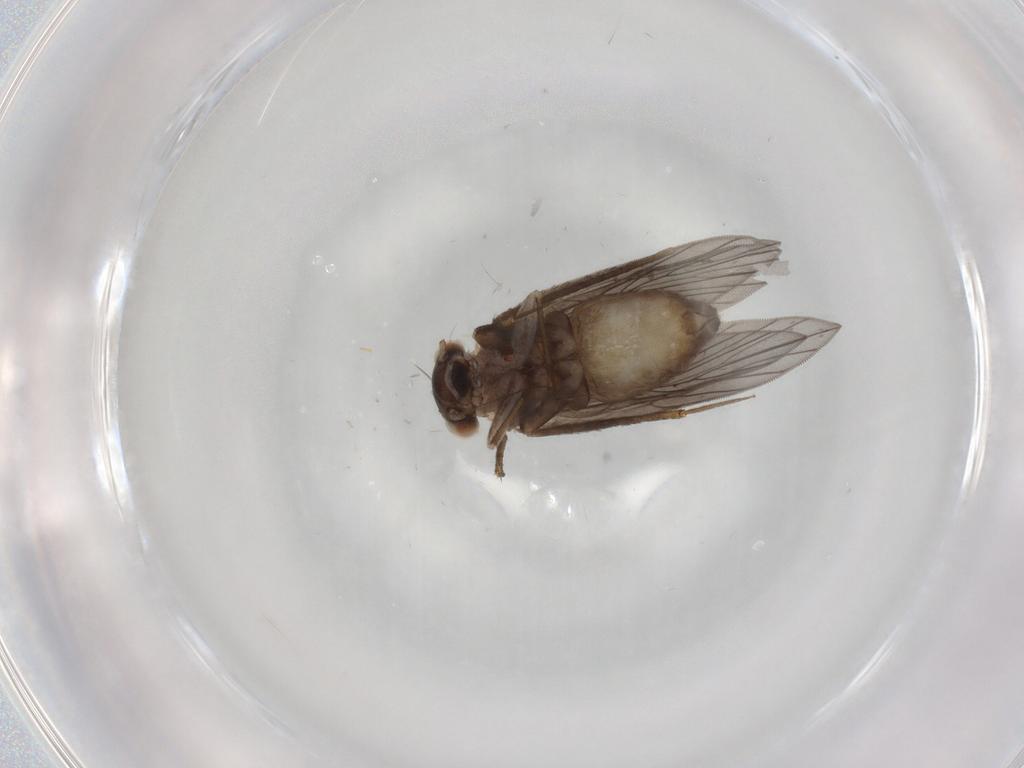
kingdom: Animalia
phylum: Arthropoda
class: Insecta
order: Psocodea
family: Lepidopsocidae
